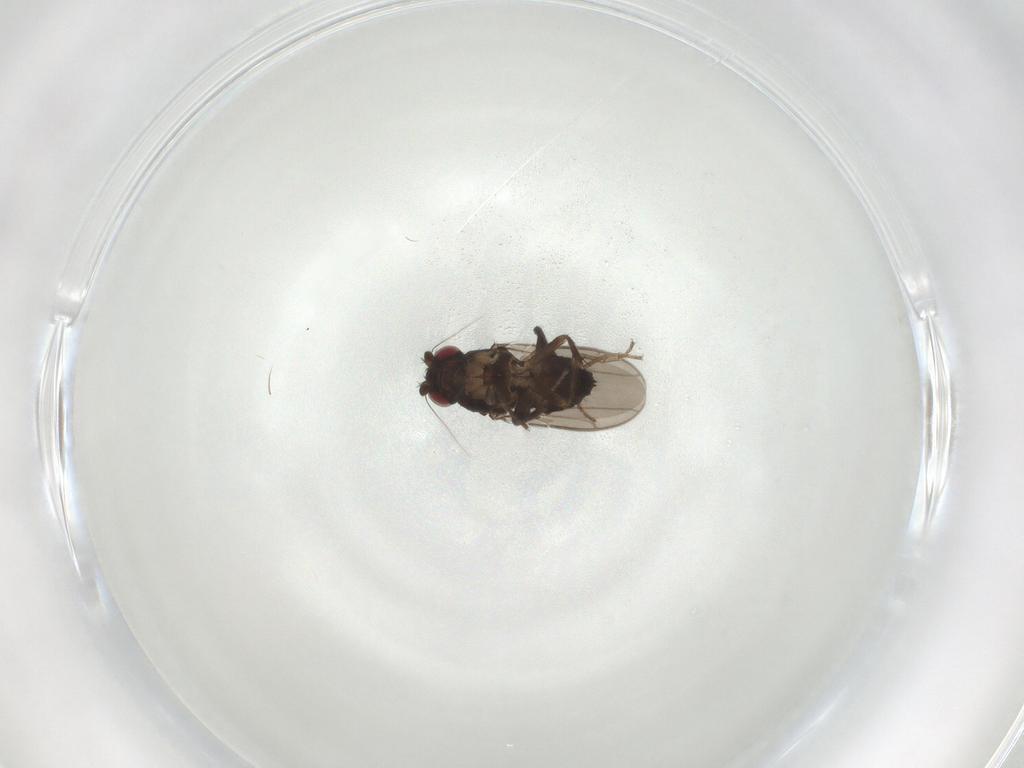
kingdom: Animalia
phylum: Arthropoda
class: Insecta
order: Diptera
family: Sphaeroceridae
